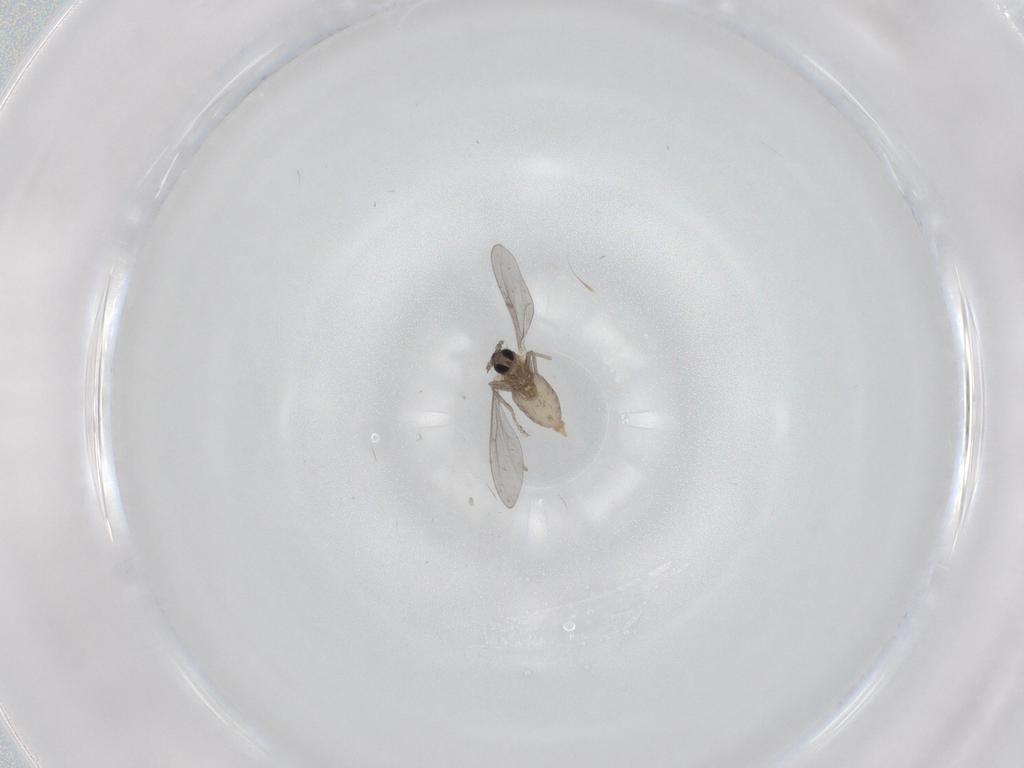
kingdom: Animalia
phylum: Arthropoda
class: Insecta
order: Diptera
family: Cecidomyiidae
